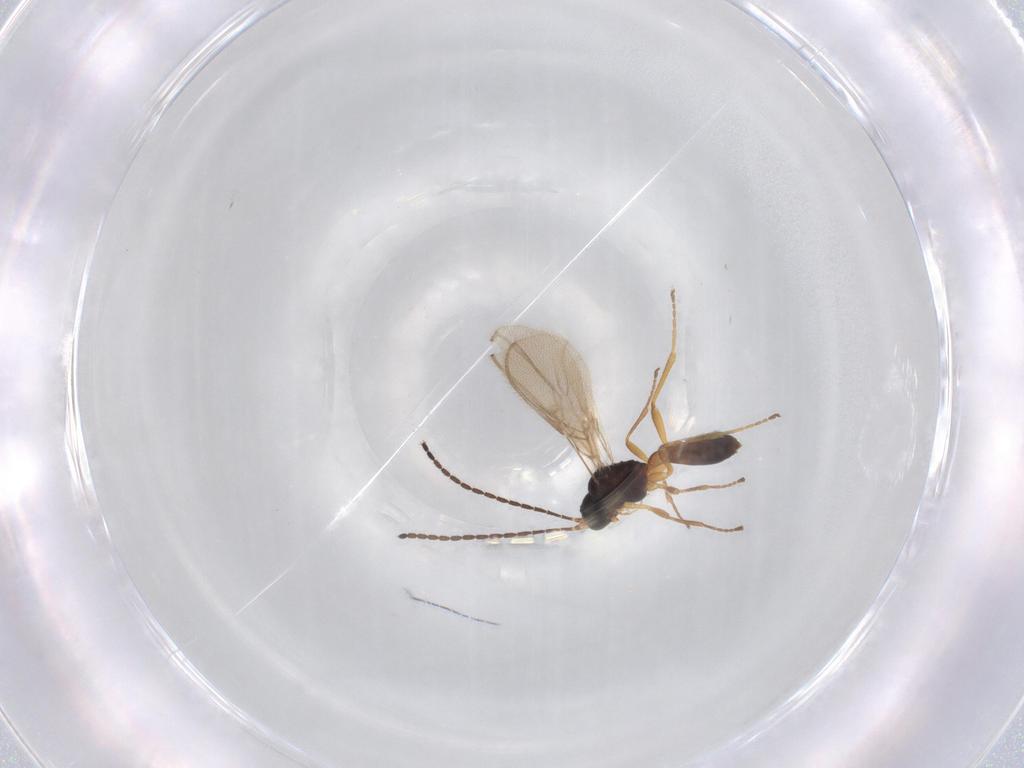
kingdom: Animalia
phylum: Arthropoda
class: Insecta
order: Hymenoptera
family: Braconidae
